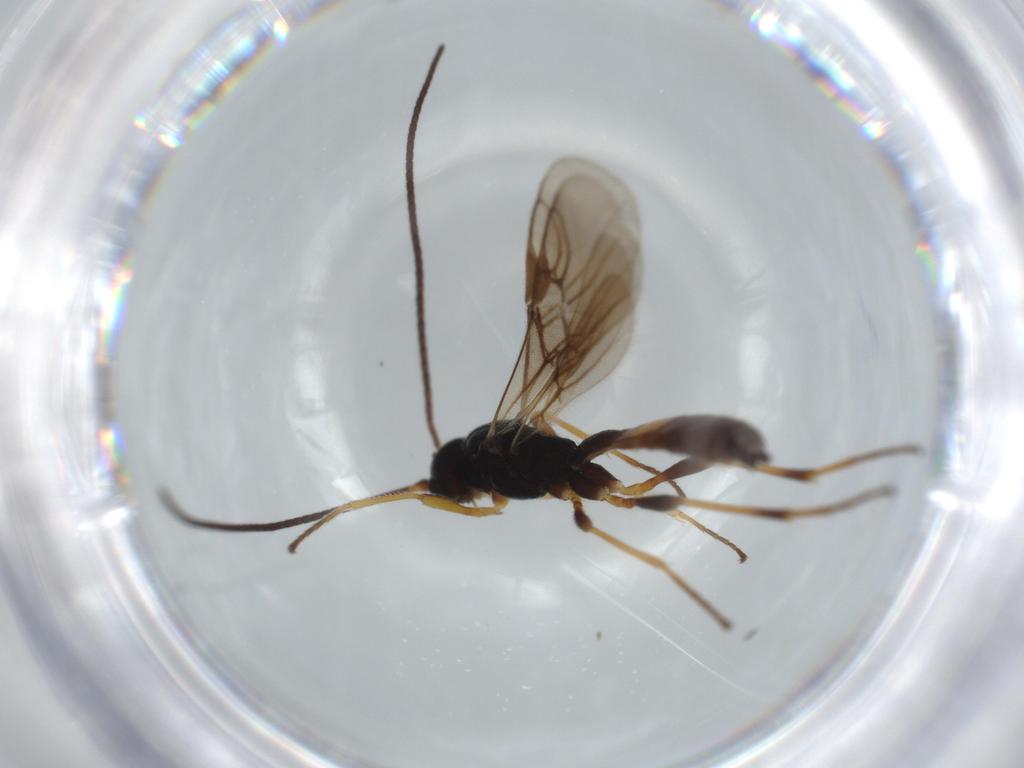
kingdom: Animalia
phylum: Arthropoda
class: Insecta
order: Hymenoptera
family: Braconidae
